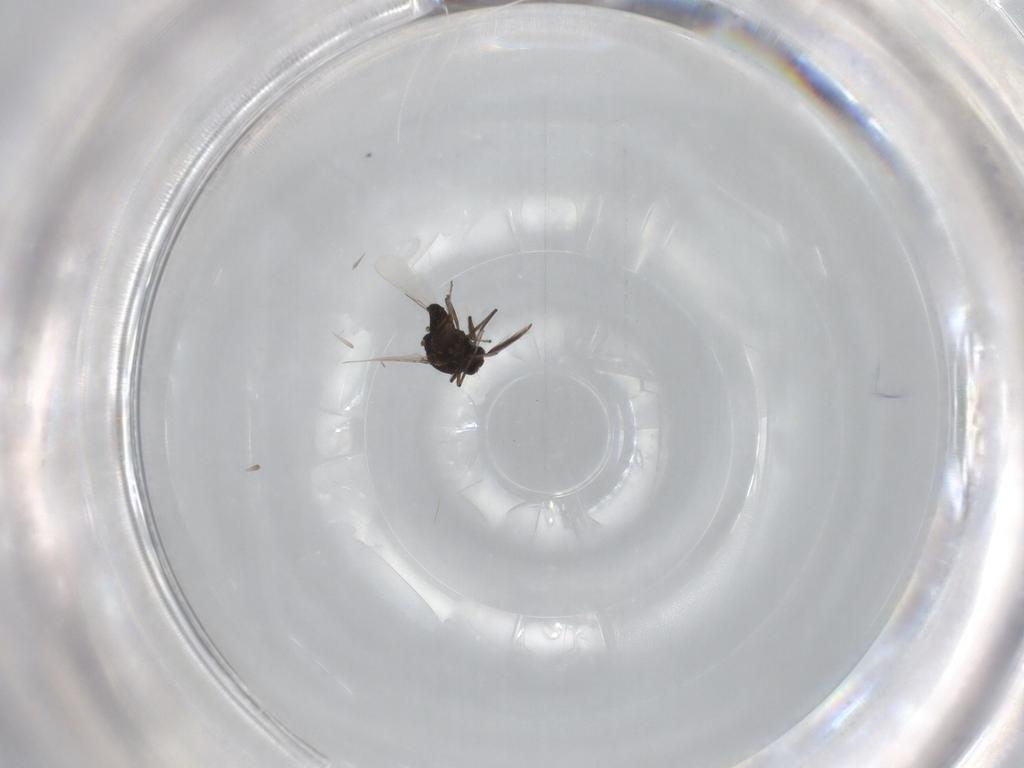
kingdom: Animalia
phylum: Arthropoda
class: Insecta
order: Diptera
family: Ceratopogonidae
